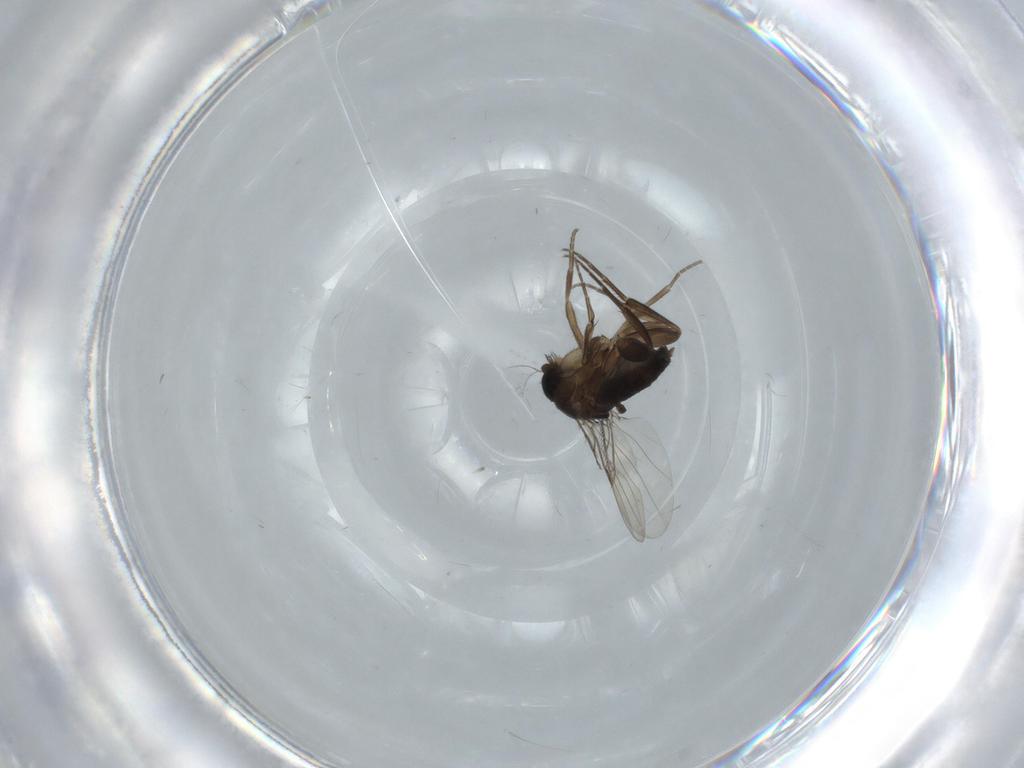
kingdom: Animalia
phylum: Arthropoda
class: Insecta
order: Diptera
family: Phoridae
